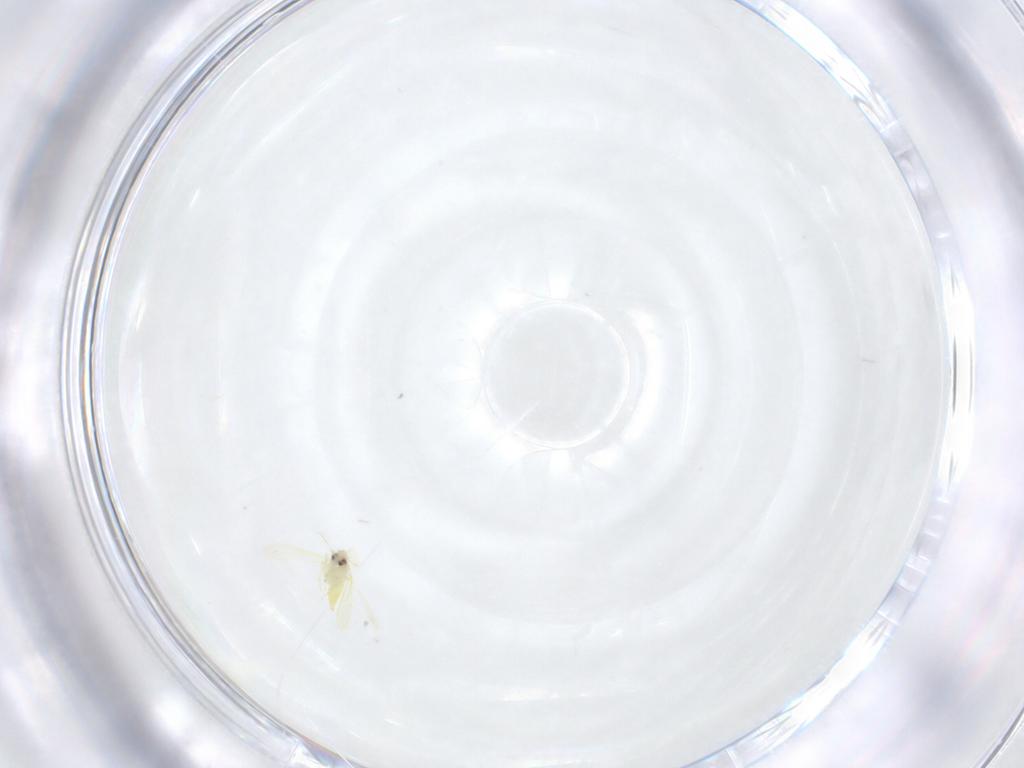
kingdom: Animalia
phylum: Arthropoda
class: Insecta
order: Hemiptera
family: Aleyrodidae
